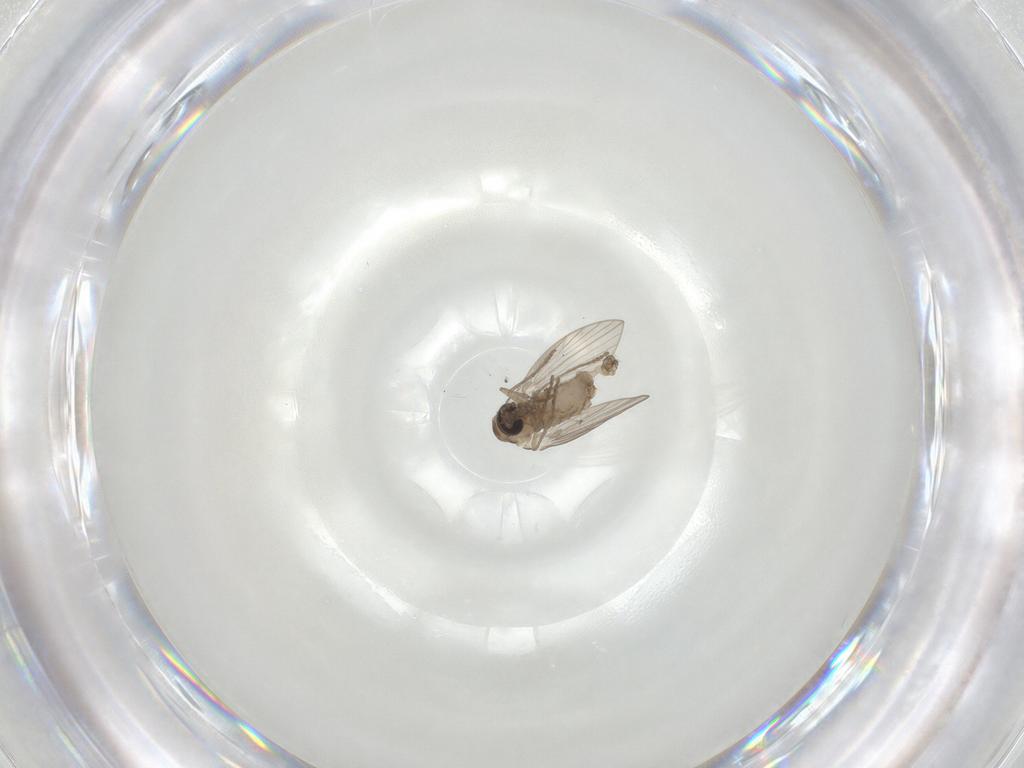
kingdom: Animalia
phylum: Arthropoda
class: Insecta
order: Diptera
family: Psychodidae
